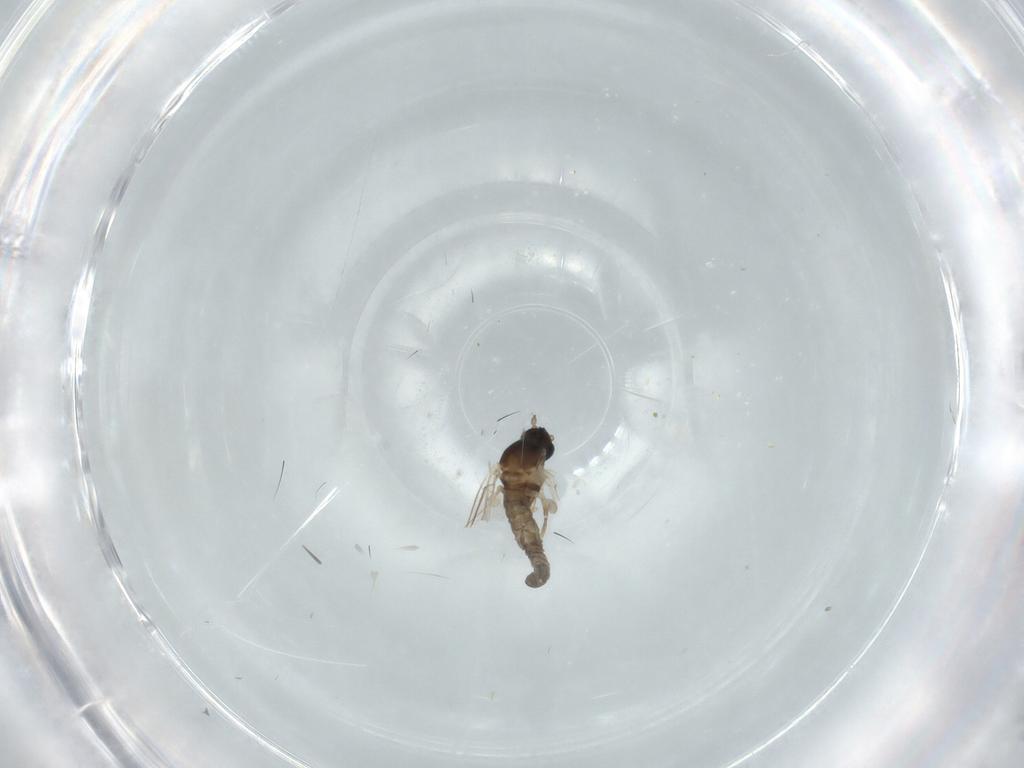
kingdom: Animalia
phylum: Arthropoda
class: Insecta
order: Diptera
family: Cecidomyiidae
